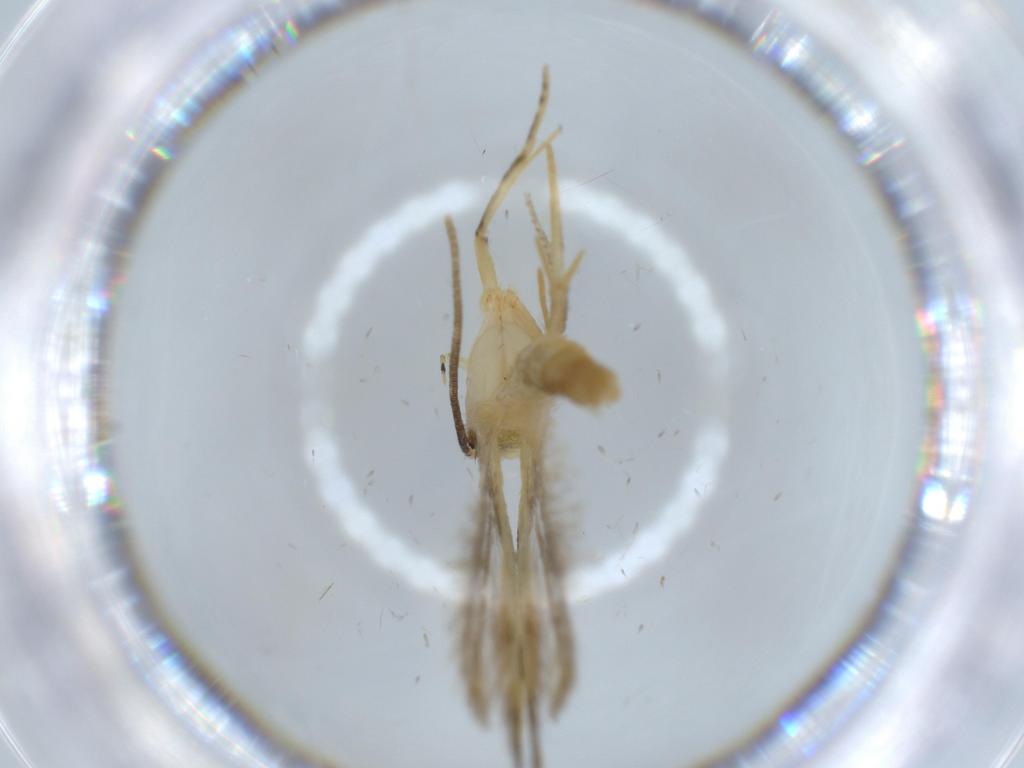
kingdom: Animalia
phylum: Arthropoda
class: Insecta
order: Lepidoptera
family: Autostichidae
